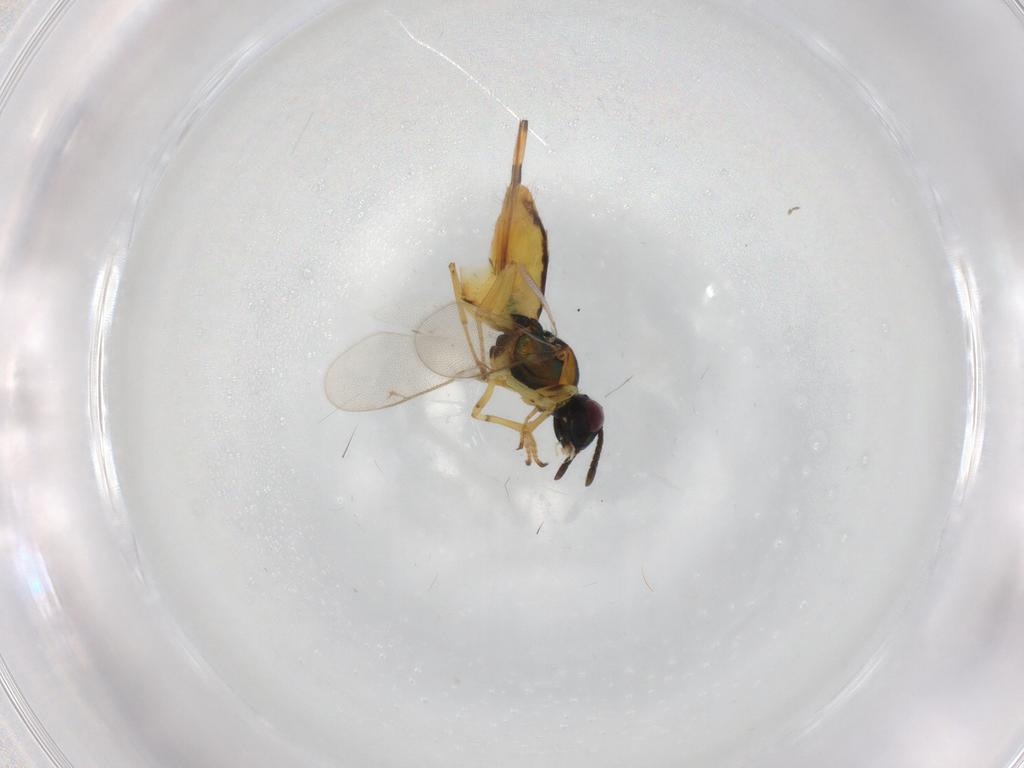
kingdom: Animalia
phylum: Arthropoda
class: Insecta
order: Hymenoptera
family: Eupelmidae
